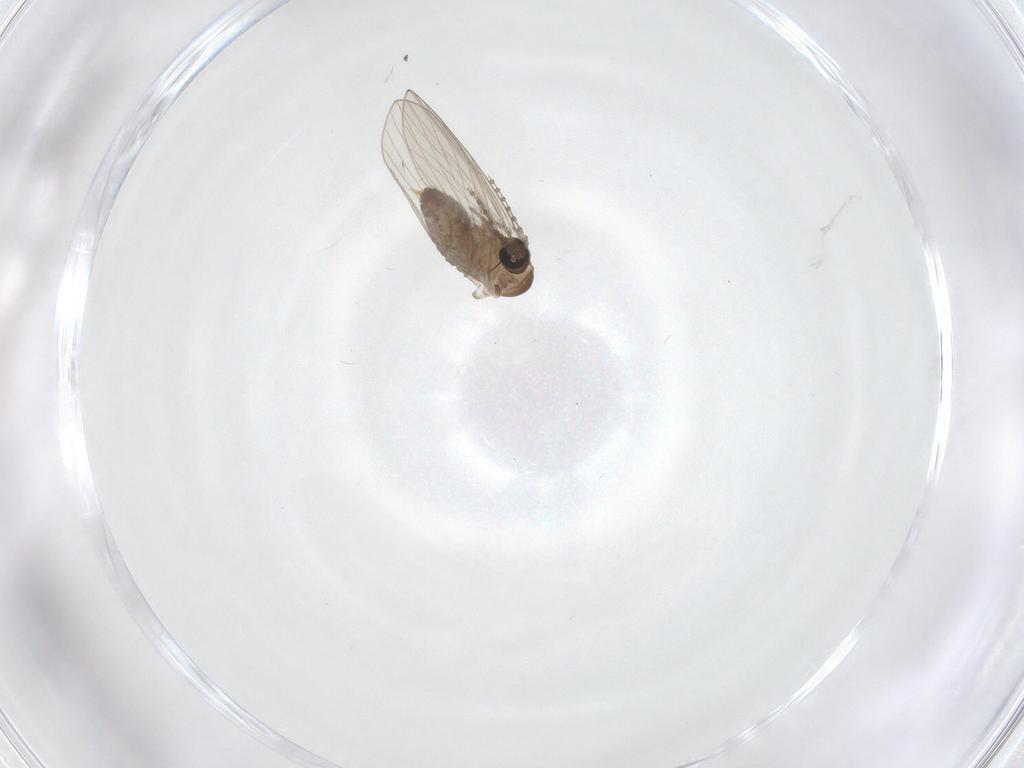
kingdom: Animalia
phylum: Arthropoda
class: Insecta
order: Diptera
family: Psychodidae
